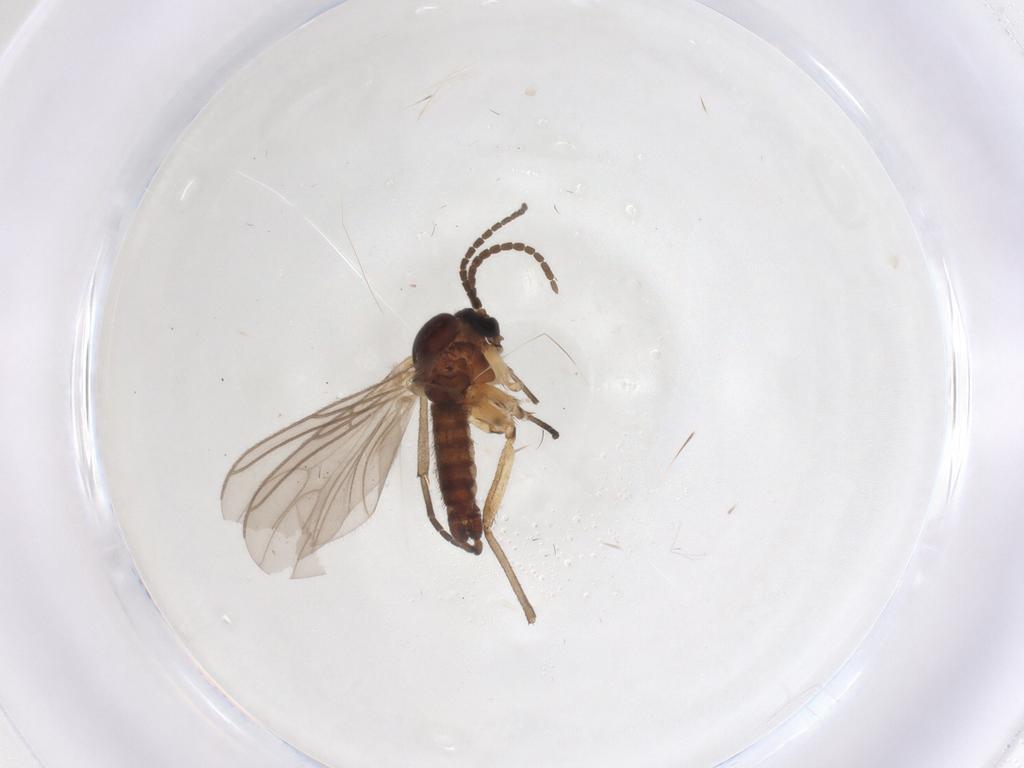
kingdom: Animalia
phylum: Arthropoda
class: Insecta
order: Diptera
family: Sciaridae
